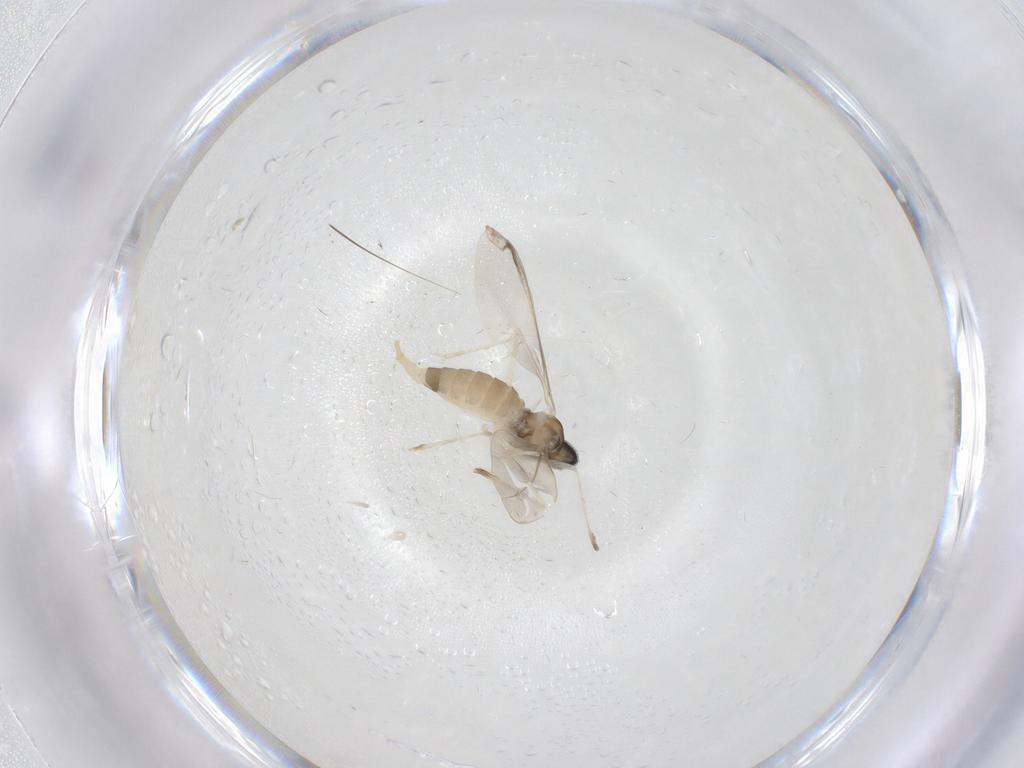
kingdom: Animalia
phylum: Arthropoda
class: Insecta
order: Diptera
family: Cecidomyiidae
